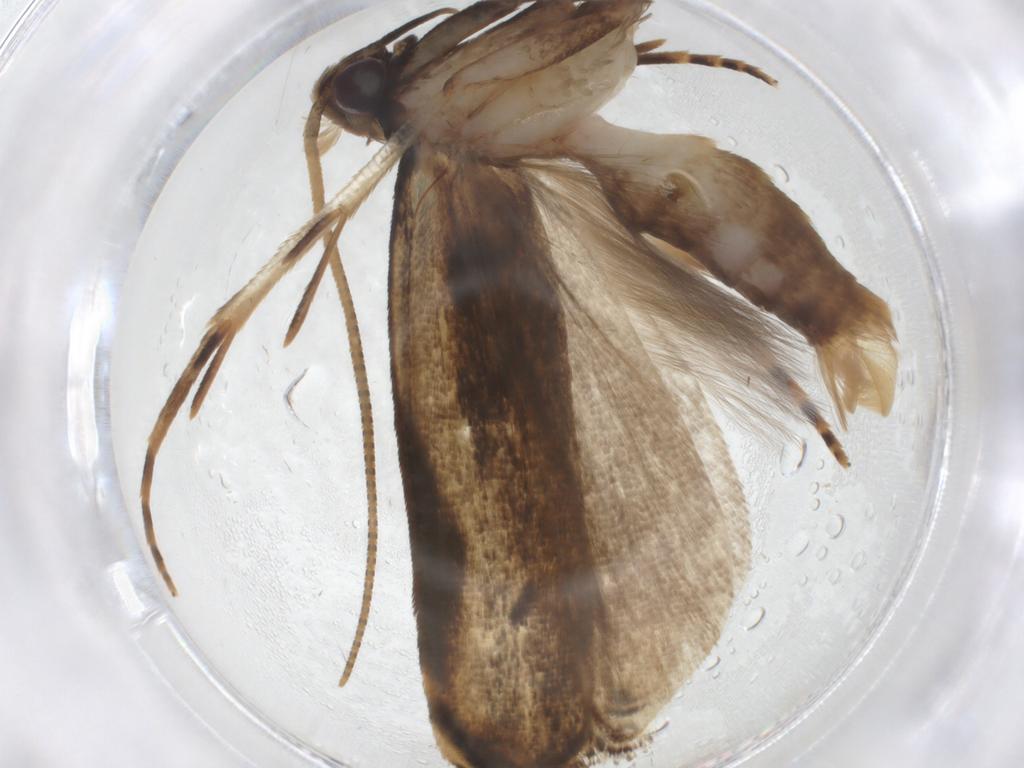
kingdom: Animalia
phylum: Arthropoda
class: Insecta
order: Lepidoptera
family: Gelechiidae
